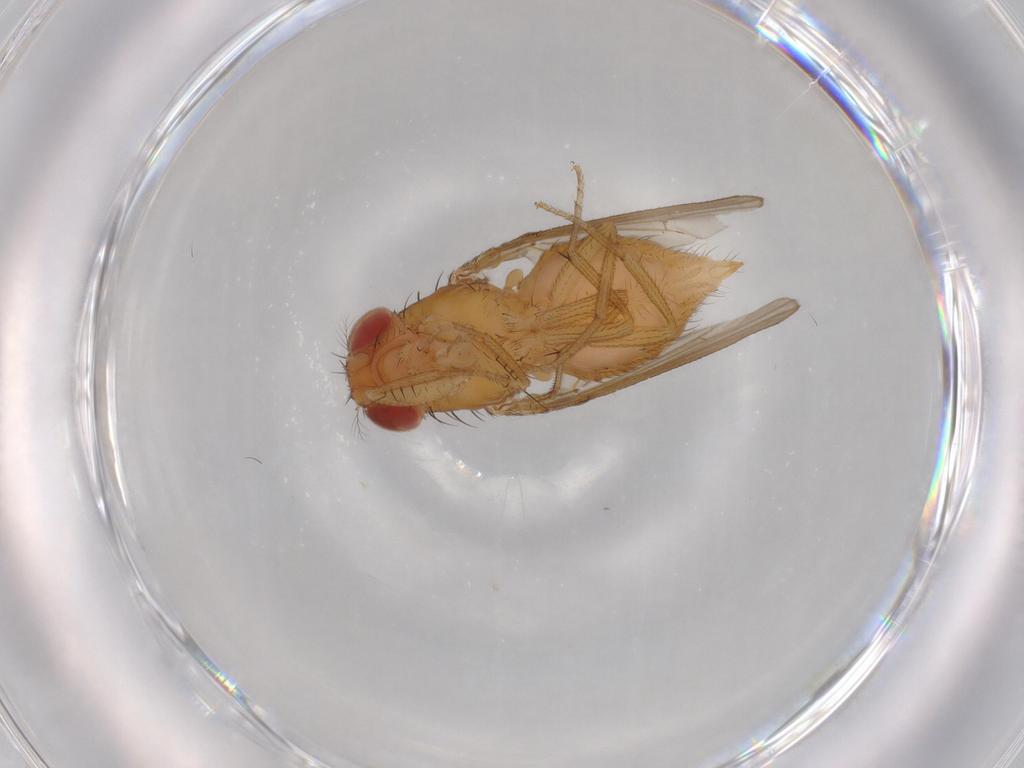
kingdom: Animalia
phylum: Arthropoda
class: Insecta
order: Diptera
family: Drosophilidae
